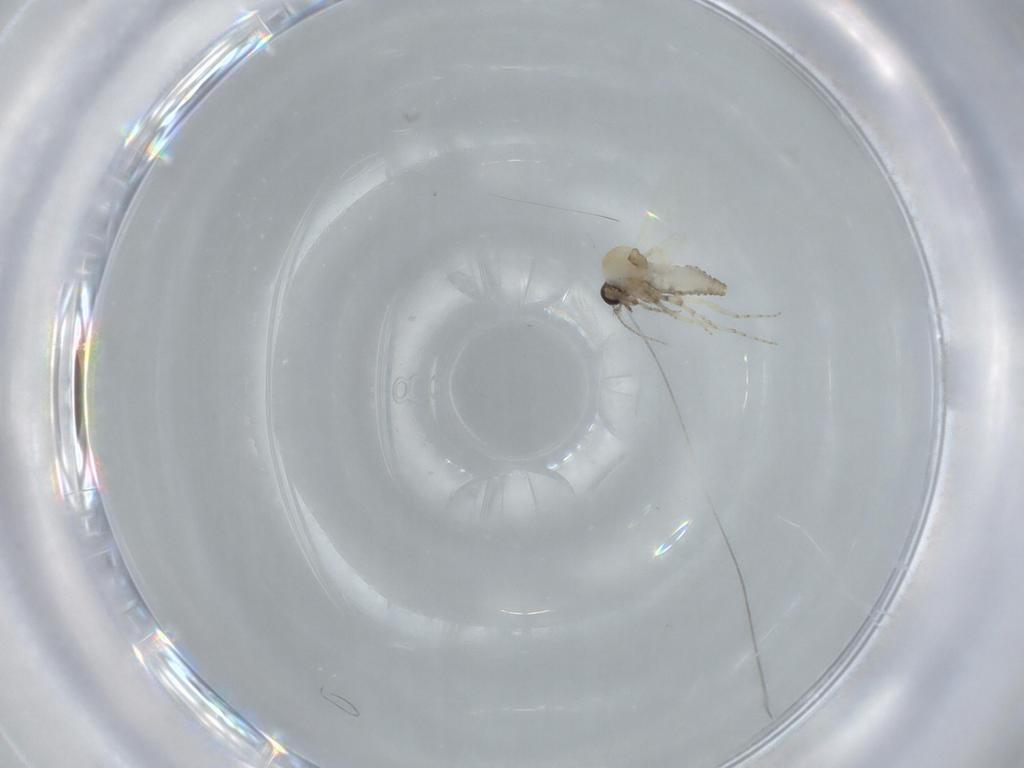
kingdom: Animalia
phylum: Arthropoda
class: Insecta
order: Diptera
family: Ceratopogonidae
